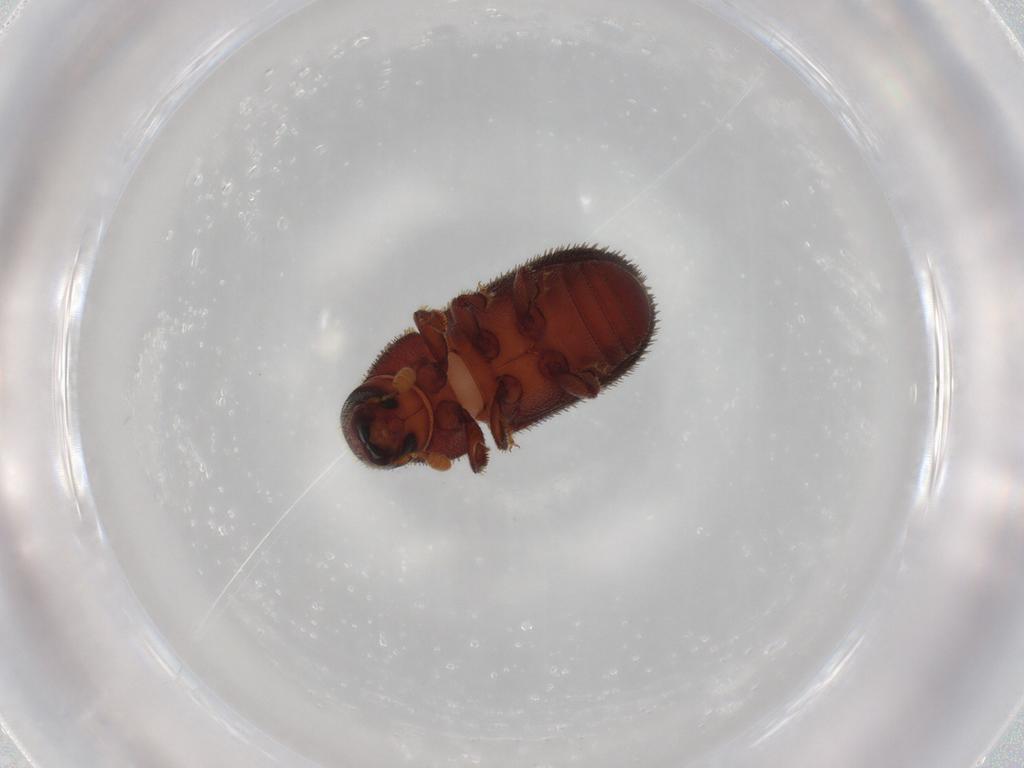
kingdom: Animalia
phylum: Arthropoda
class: Insecta
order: Coleoptera
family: Curculionidae
